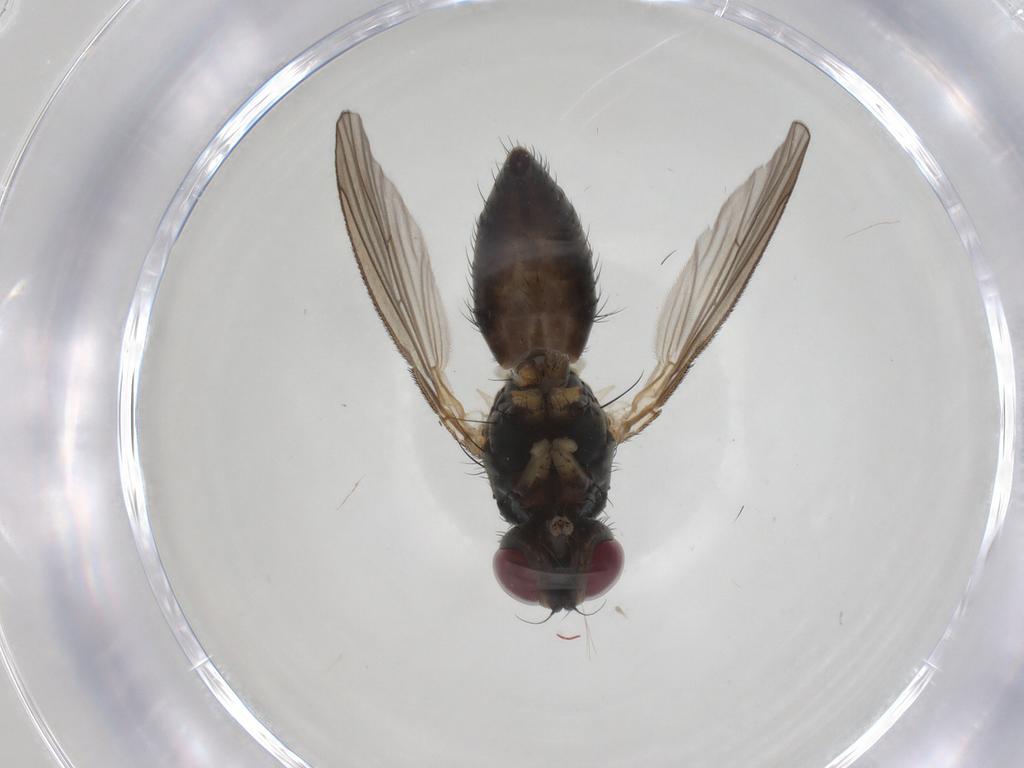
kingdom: Animalia
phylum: Arthropoda
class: Insecta
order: Diptera
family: Muscidae
